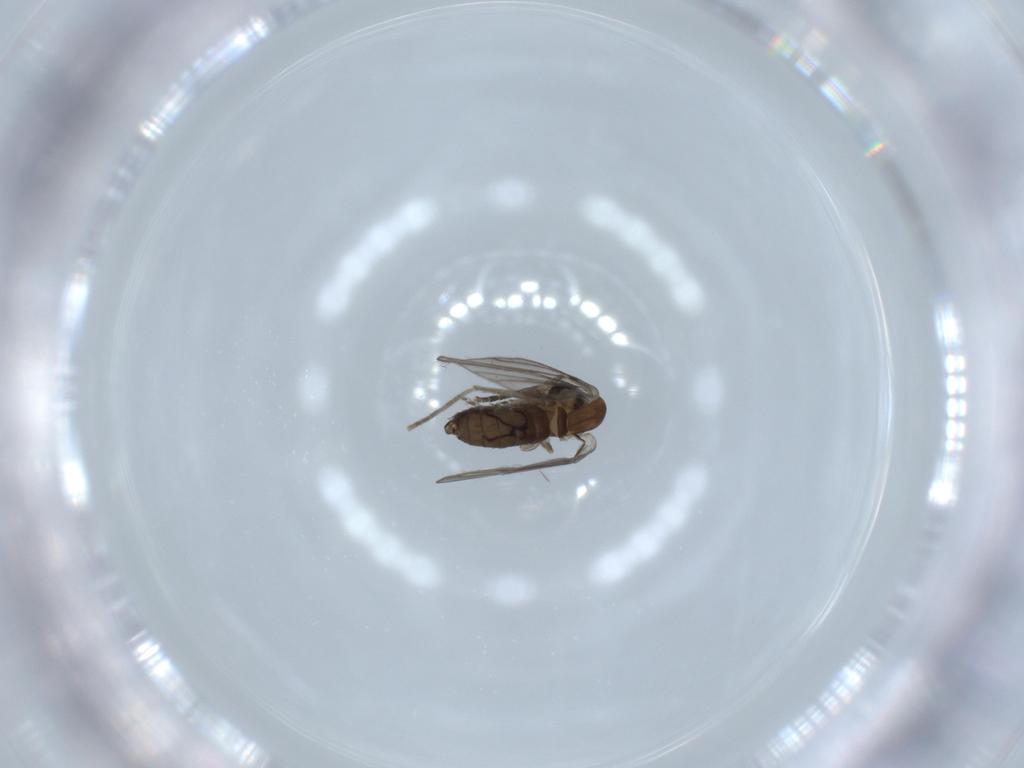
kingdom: Animalia
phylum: Arthropoda
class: Insecta
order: Diptera
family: Psychodidae
